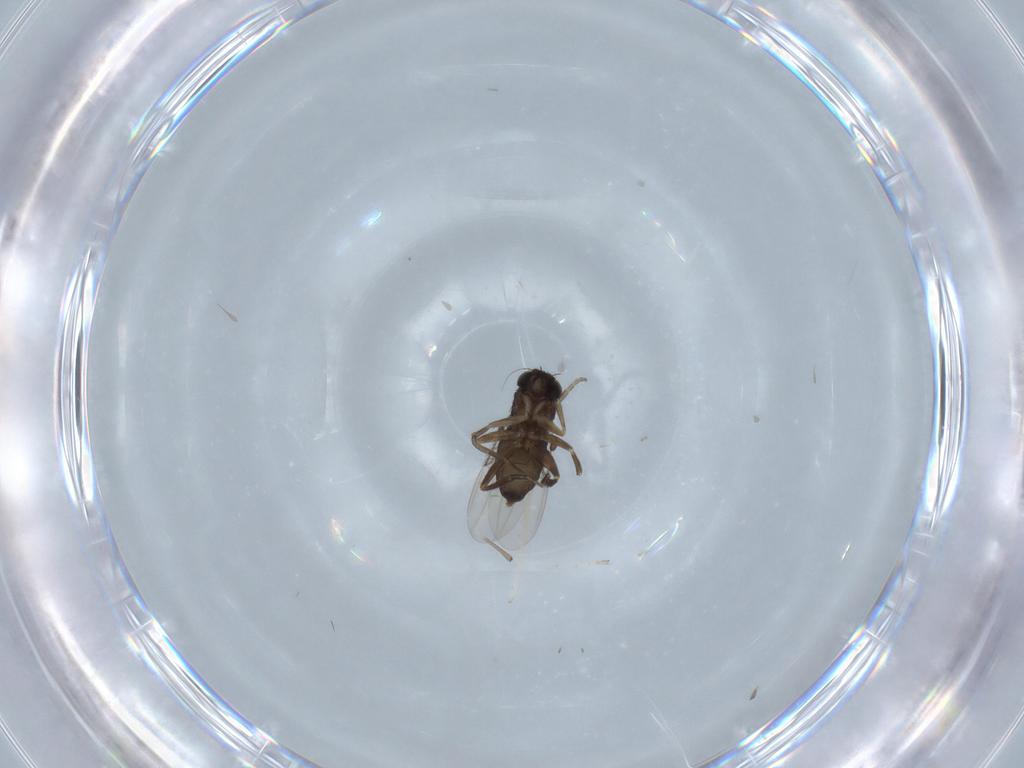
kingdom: Animalia
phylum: Arthropoda
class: Insecta
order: Diptera
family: Phoridae
